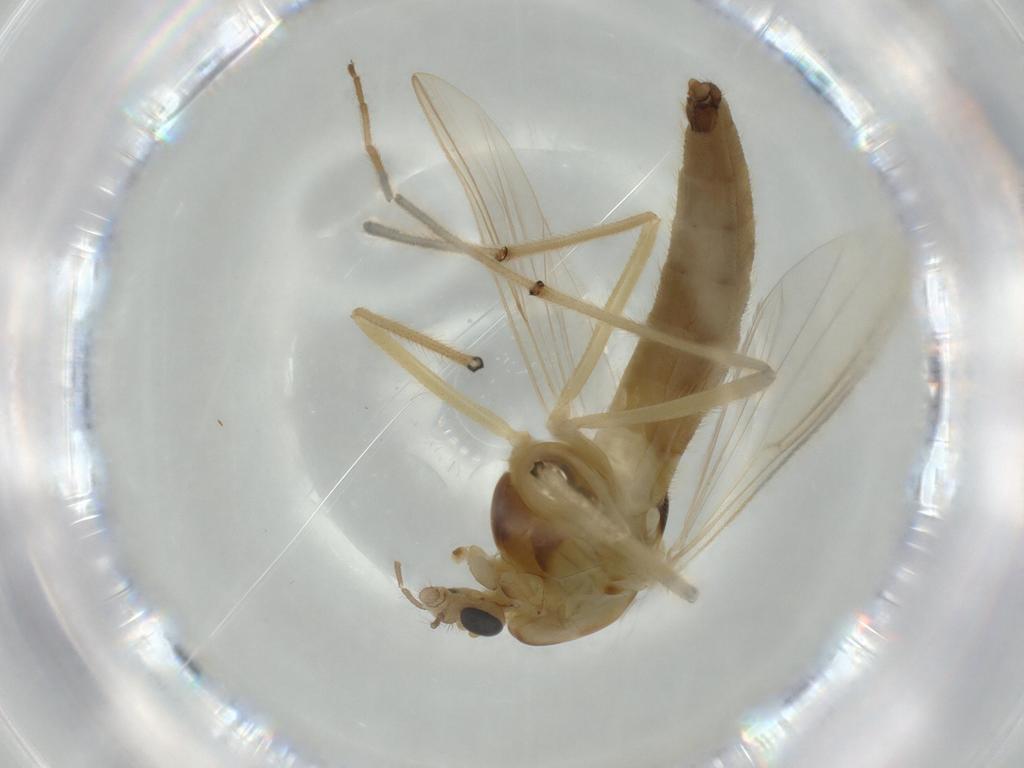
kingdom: Animalia
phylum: Arthropoda
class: Insecta
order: Diptera
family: Chironomidae
